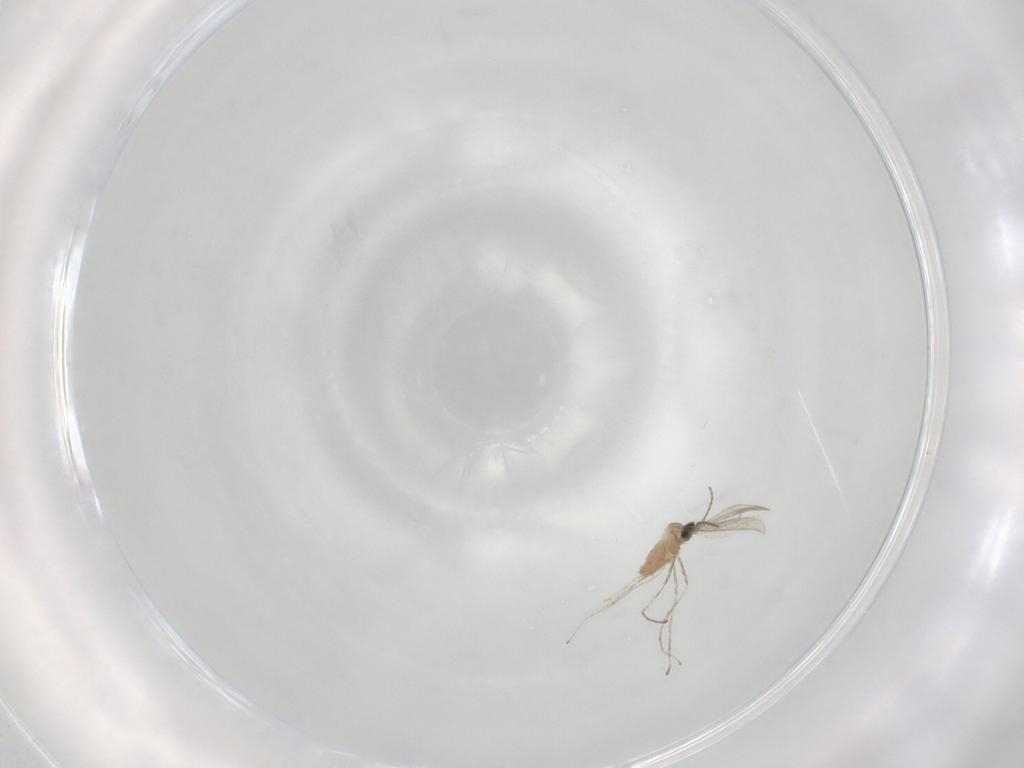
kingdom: Animalia
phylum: Arthropoda
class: Insecta
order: Diptera
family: Cecidomyiidae
